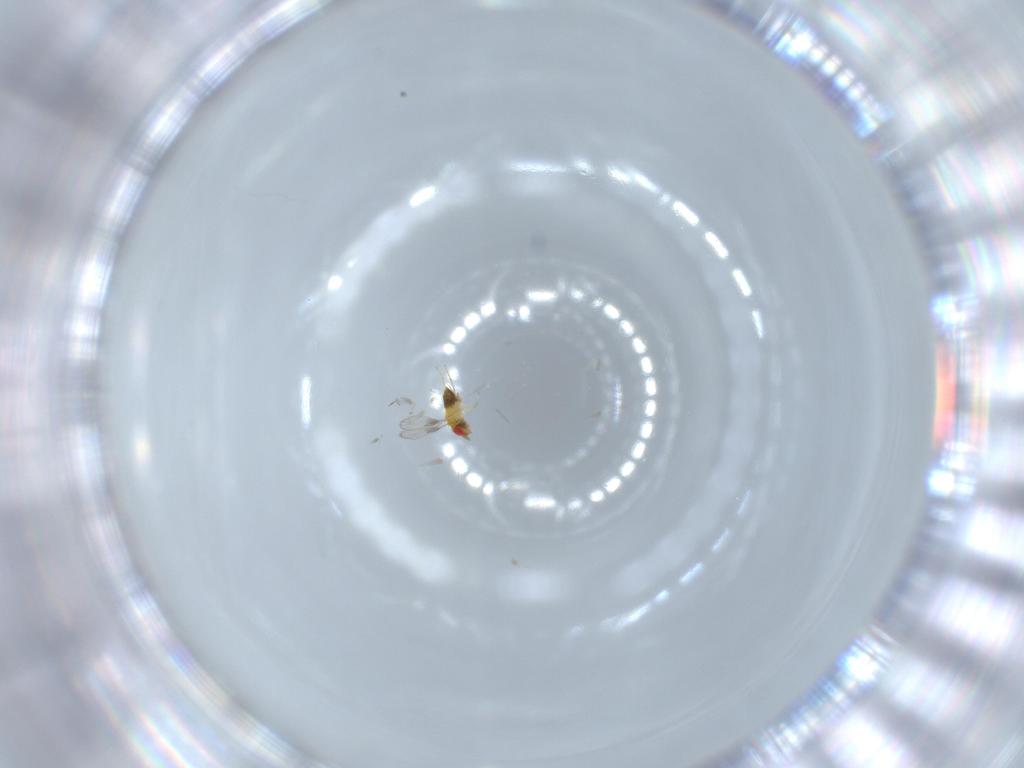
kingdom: Animalia
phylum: Arthropoda
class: Insecta
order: Hymenoptera
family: Trichogrammatidae
